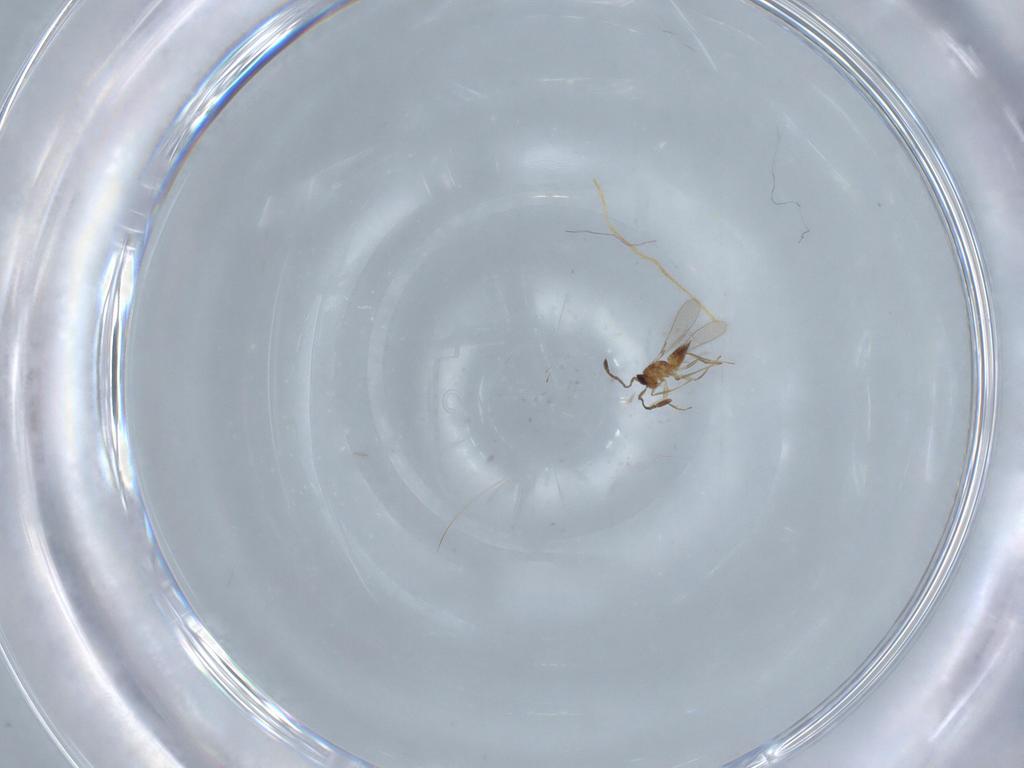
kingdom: Animalia
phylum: Arthropoda
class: Insecta
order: Hymenoptera
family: Mymaridae
